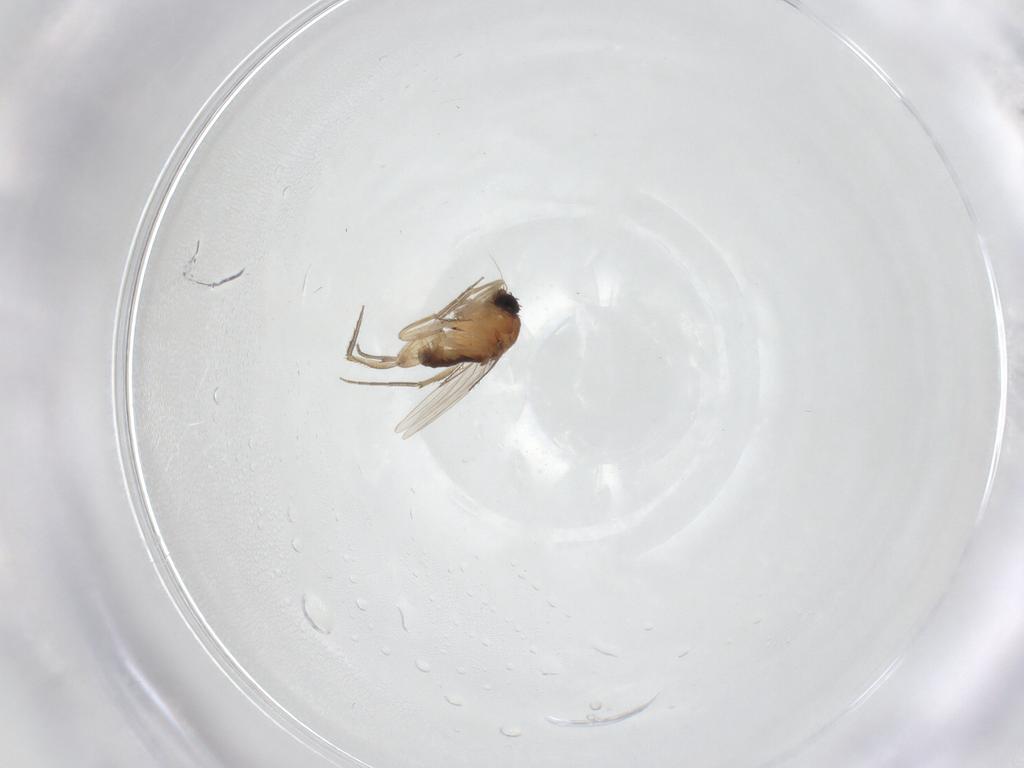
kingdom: Animalia
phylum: Arthropoda
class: Insecta
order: Diptera
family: Phoridae
